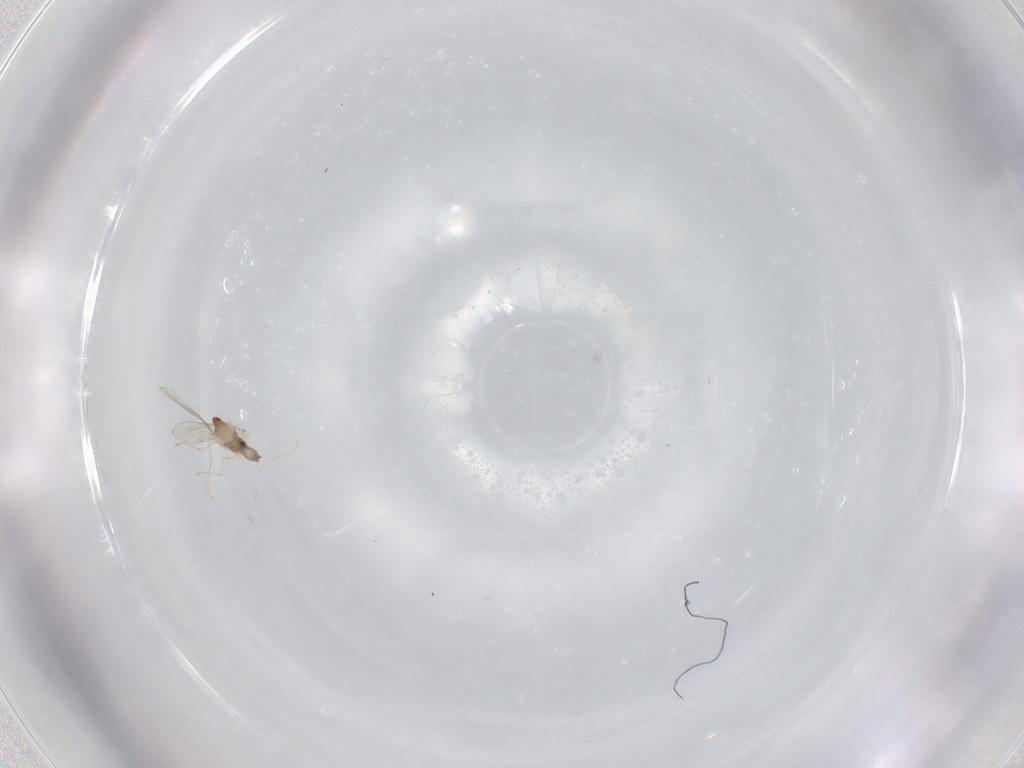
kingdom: Animalia
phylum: Arthropoda
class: Insecta
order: Diptera
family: Cecidomyiidae
